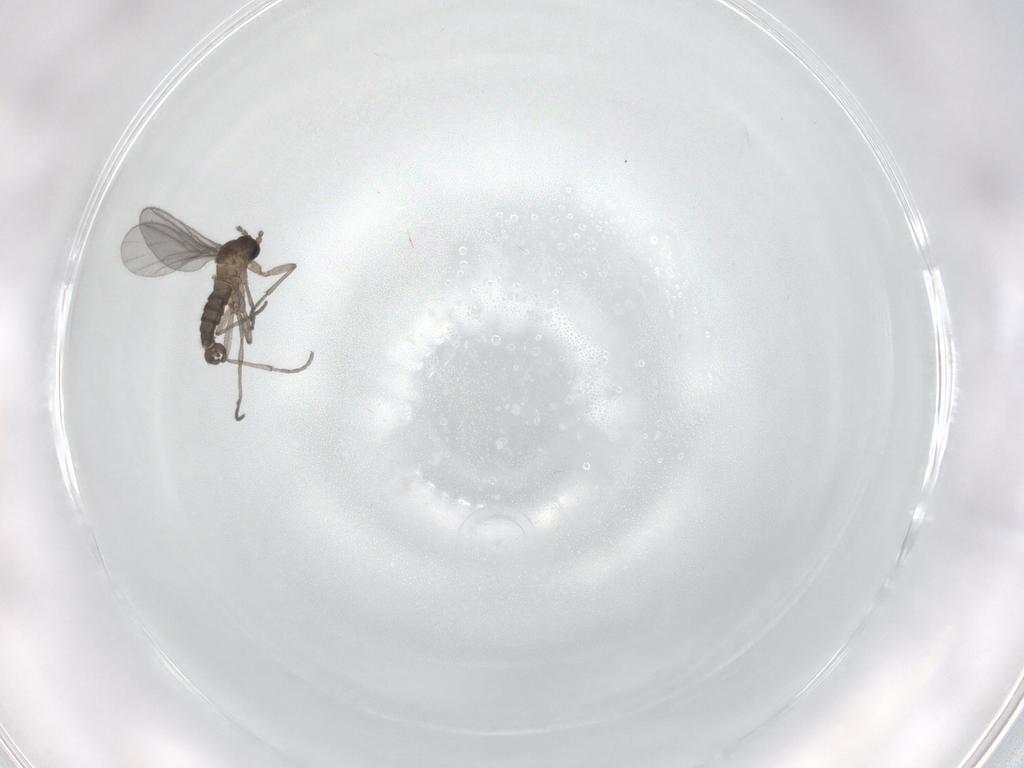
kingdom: Animalia
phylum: Arthropoda
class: Insecta
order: Diptera
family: Sciaridae
